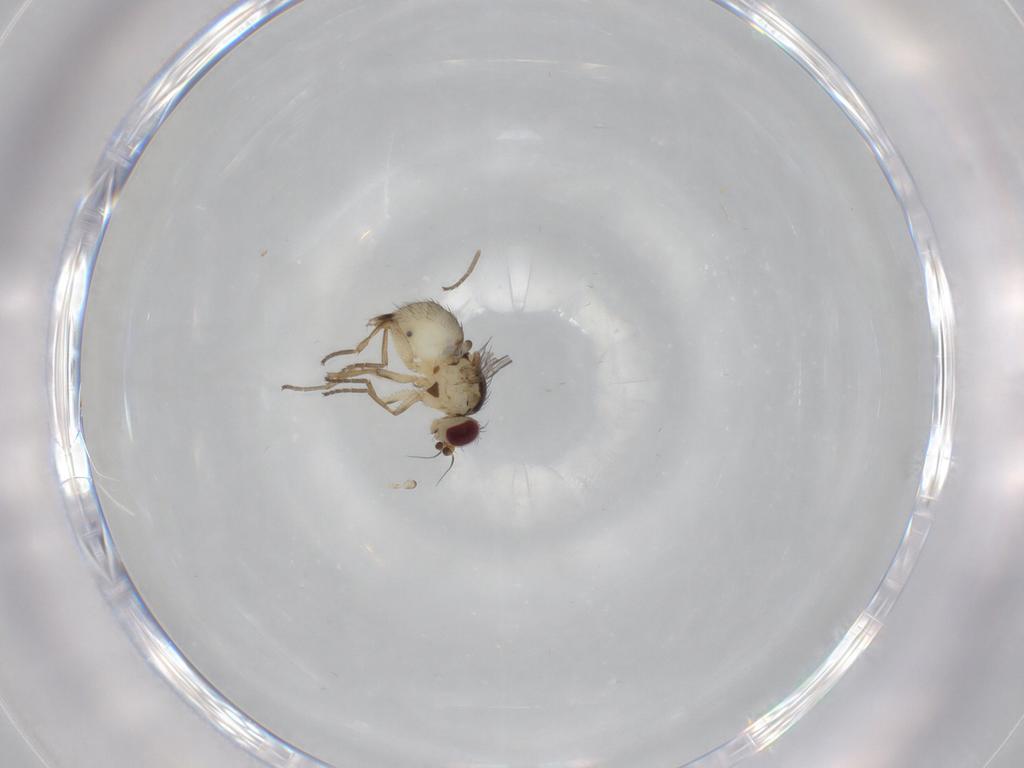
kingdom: Animalia
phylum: Arthropoda
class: Insecta
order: Diptera
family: Agromyzidae
